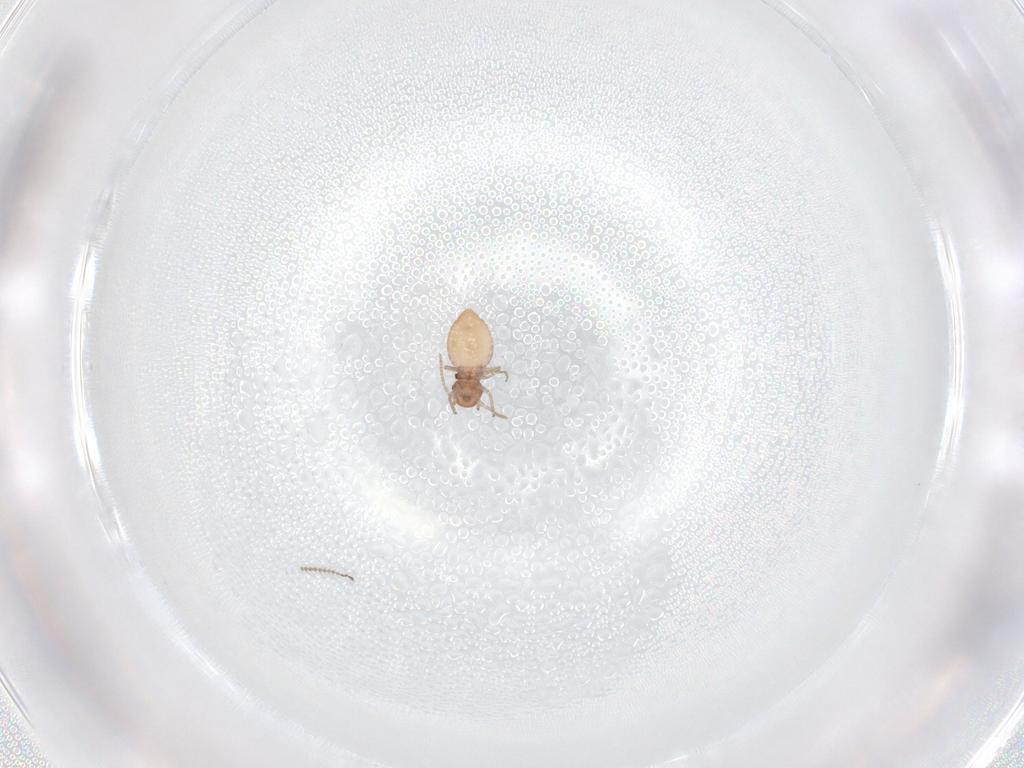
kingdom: Animalia
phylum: Arthropoda
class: Insecta
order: Psocodea
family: Caeciliusidae
